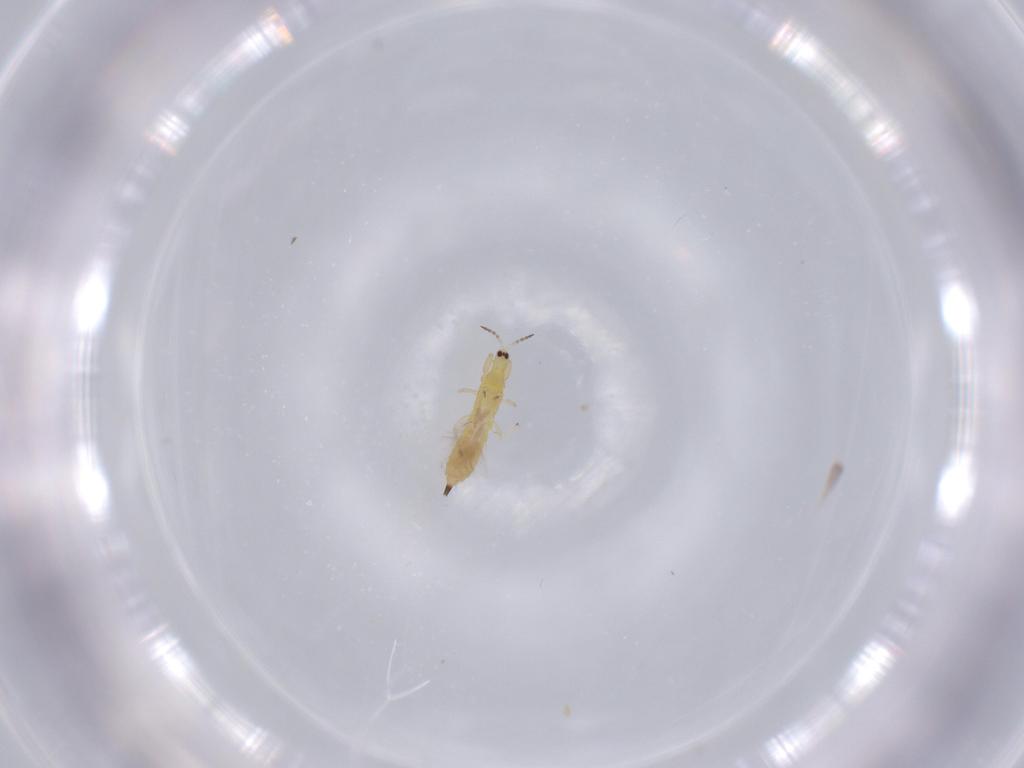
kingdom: Animalia
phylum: Arthropoda
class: Insecta
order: Thysanoptera
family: Phlaeothripidae
